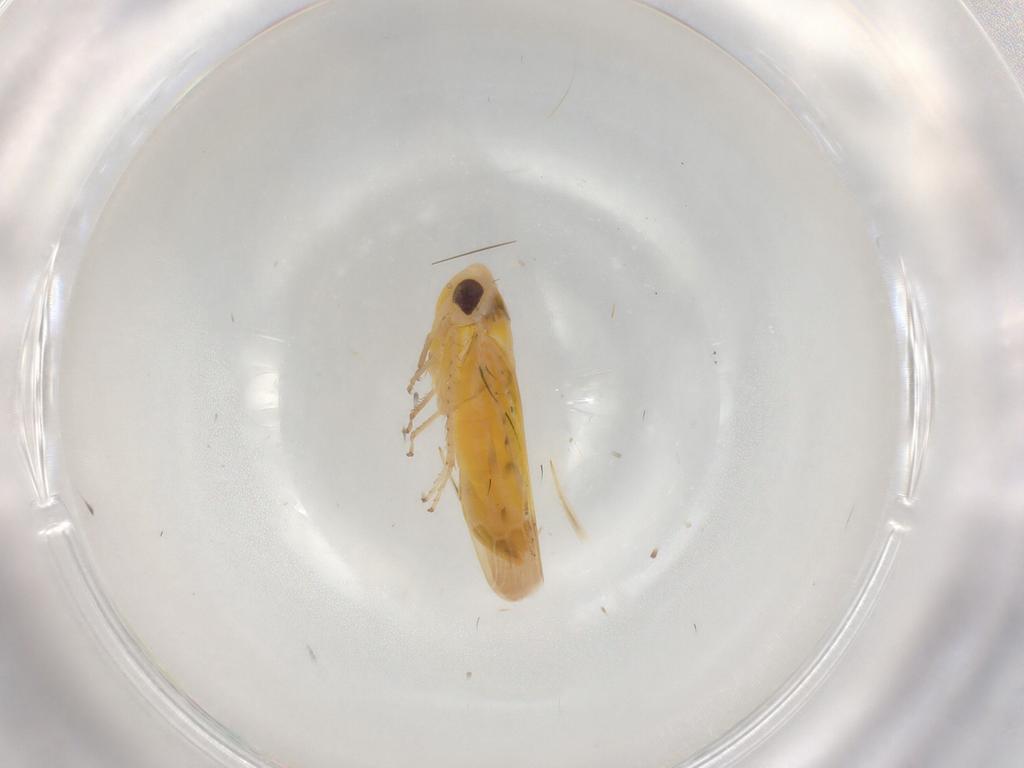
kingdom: Animalia
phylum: Arthropoda
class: Insecta
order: Hemiptera
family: Cicadellidae
